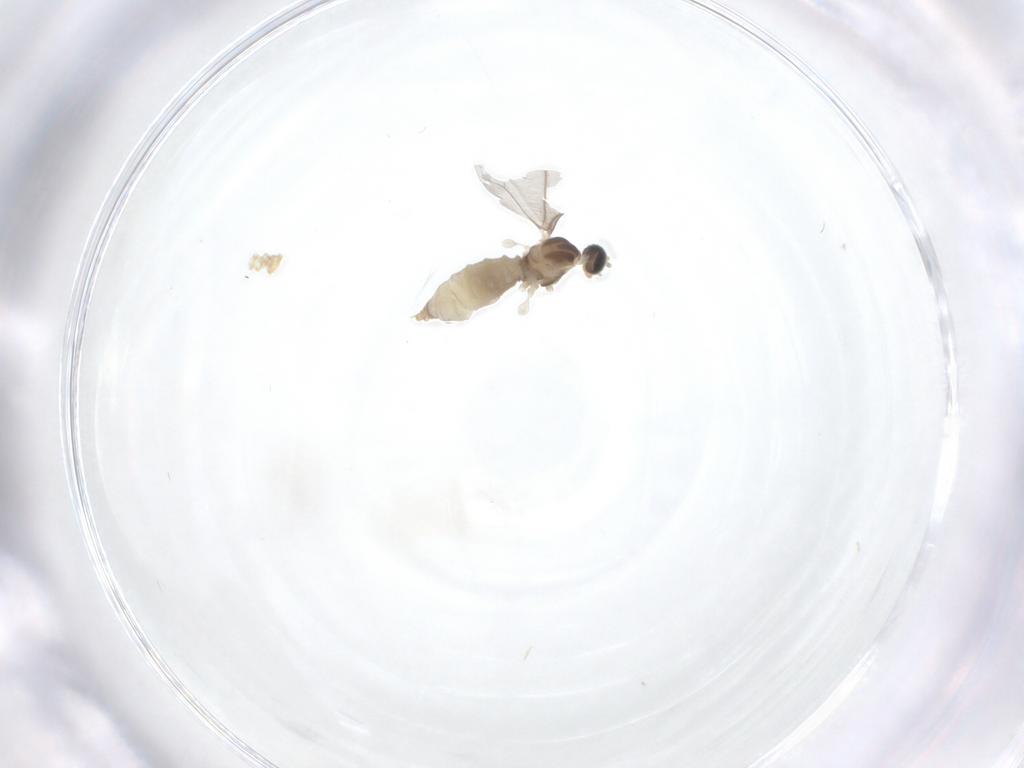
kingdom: Animalia
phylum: Arthropoda
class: Insecta
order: Diptera
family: Cecidomyiidae
